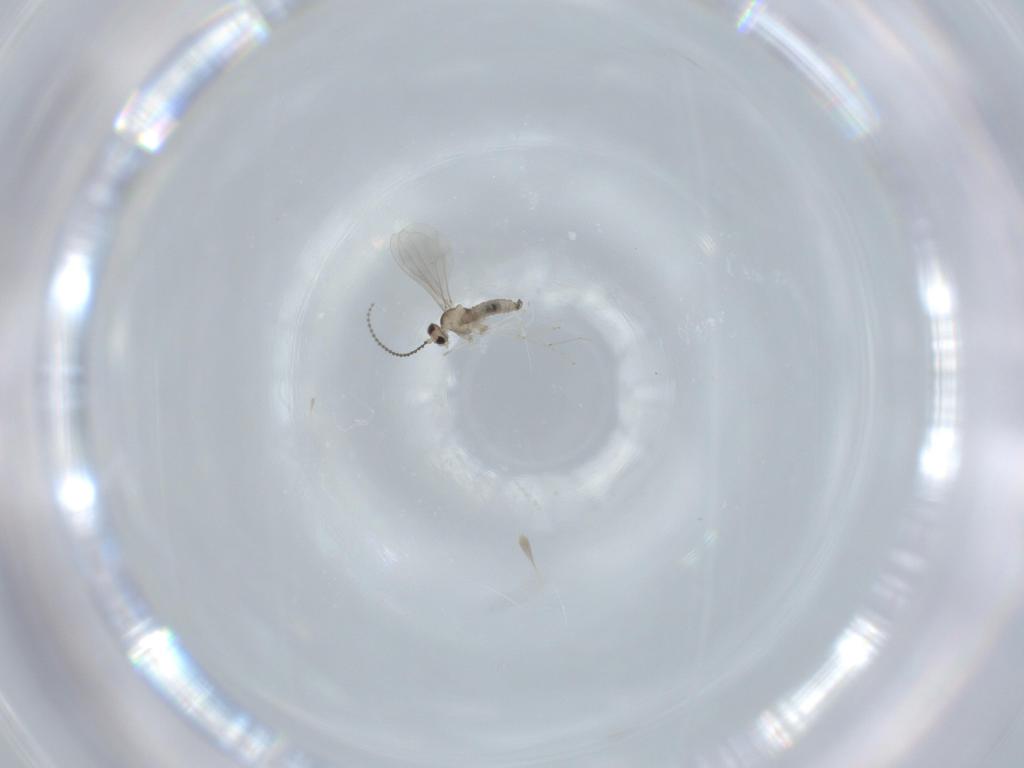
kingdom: Animalia
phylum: Arthropoda
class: Insecta
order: Diptera
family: Cecidomyiidae
